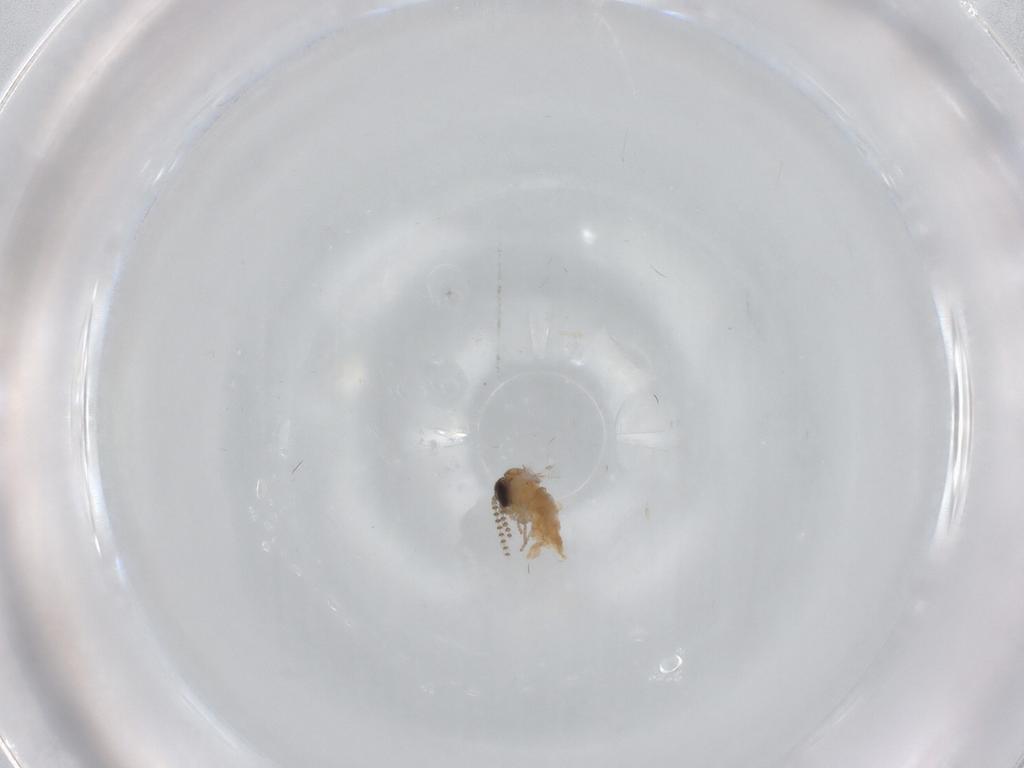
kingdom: Animalia
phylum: Arthropoda
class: Insecta
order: Diptera
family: Psychodidae
